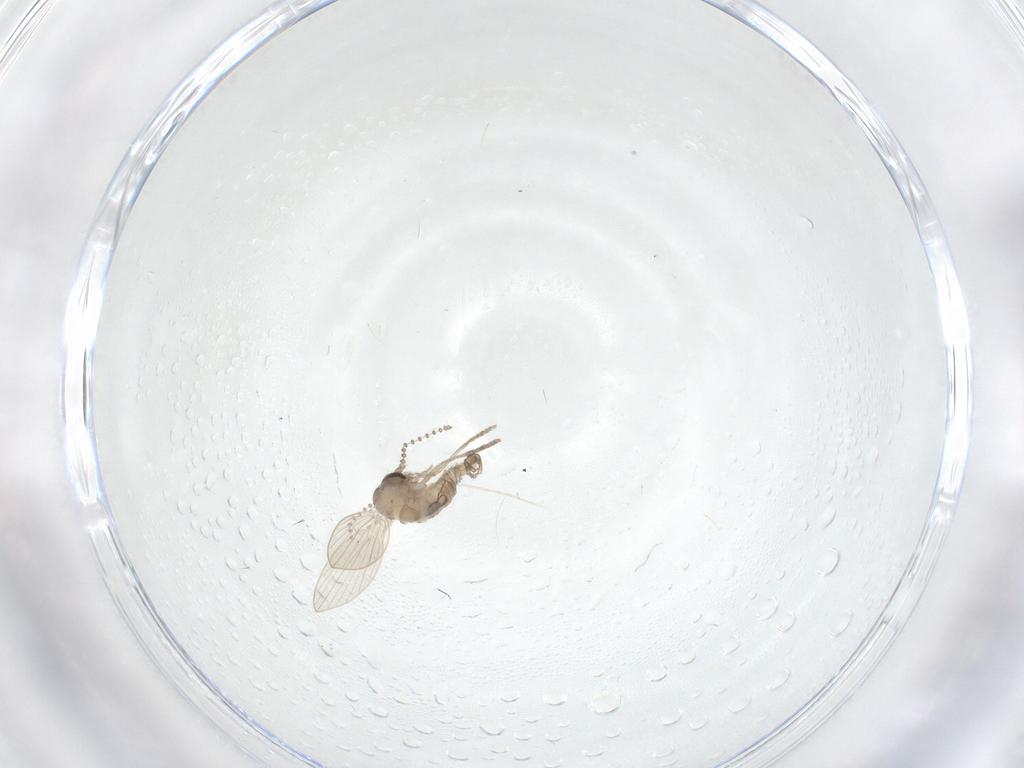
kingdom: Animalia
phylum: Arthropoda
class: Insecta
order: Diptera
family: Psychodidae
